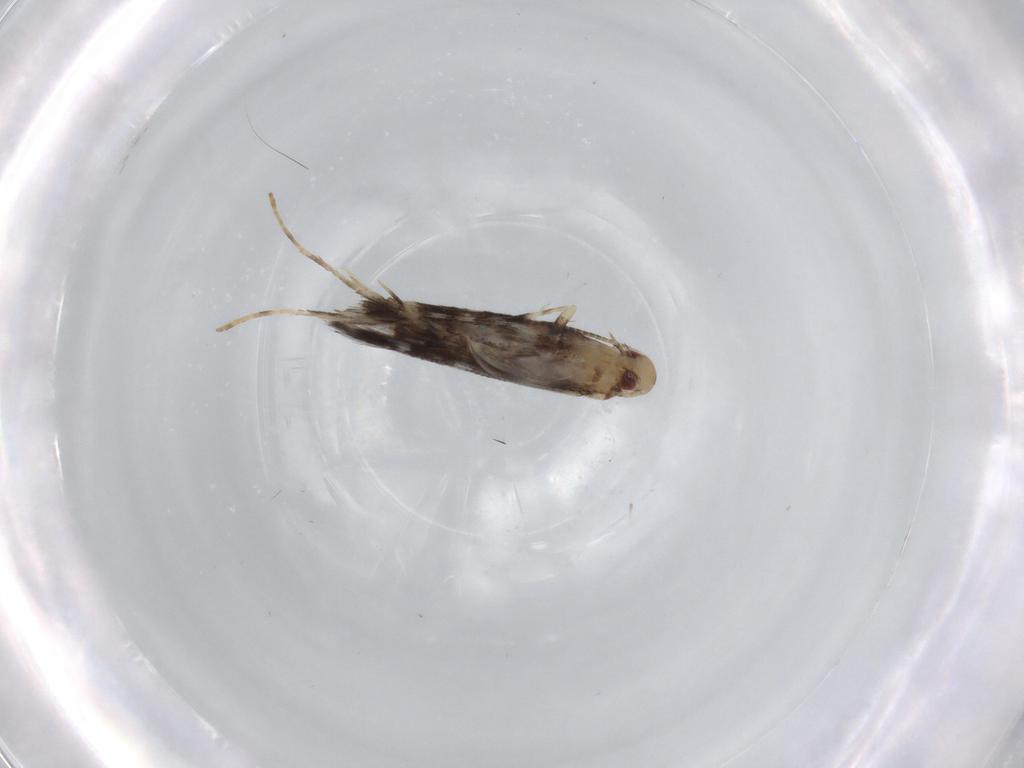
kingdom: Animalia
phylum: Arthropoda
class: Insecta
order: Lepidoptera
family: Gracillariidae
